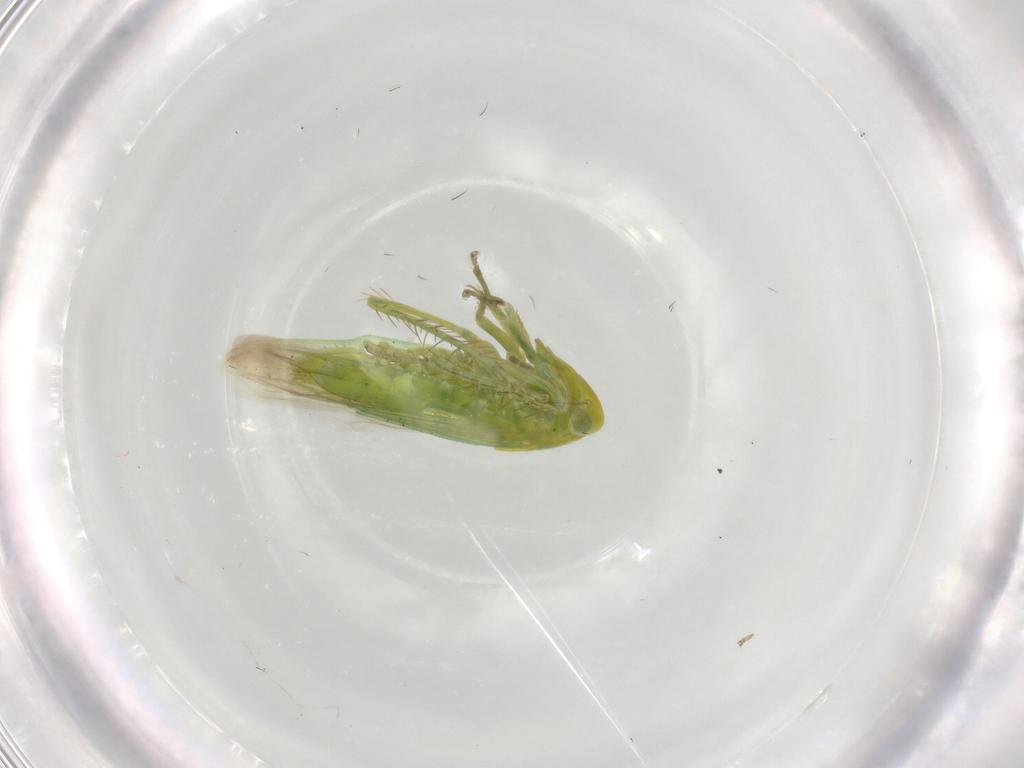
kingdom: Animalia
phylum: Arthropoda
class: Insecta
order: Hemiptera
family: Cicadellidae
